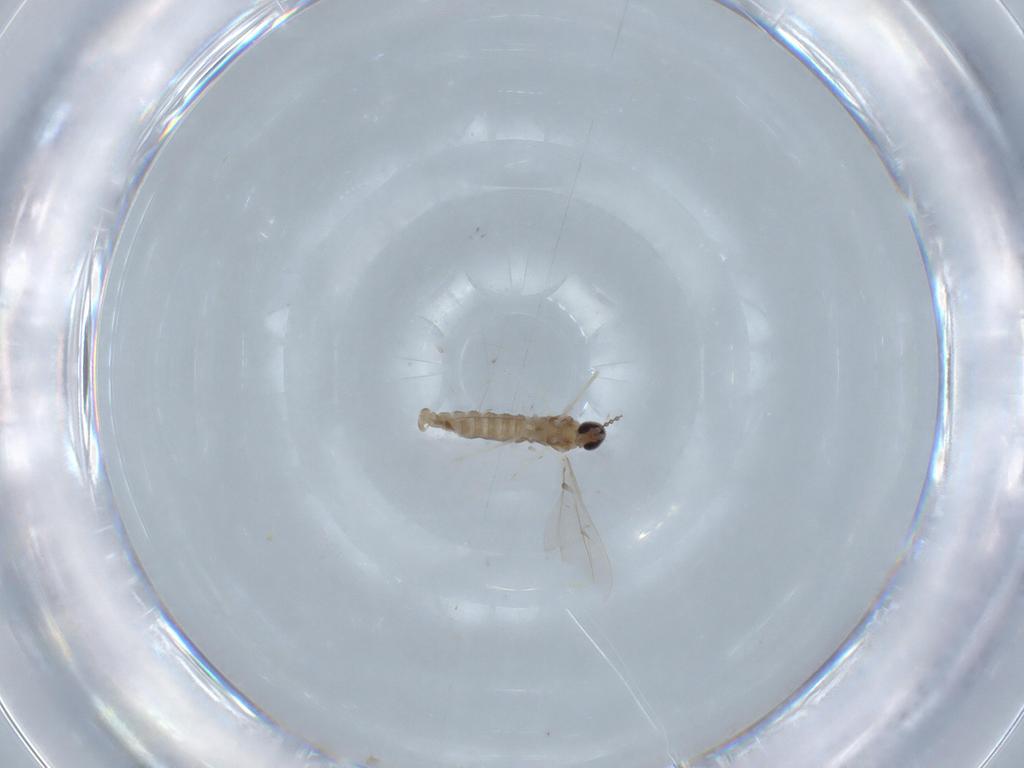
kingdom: Animalia
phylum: Arthropoda
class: Insecta
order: Diptera
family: Cecidomyiidae
